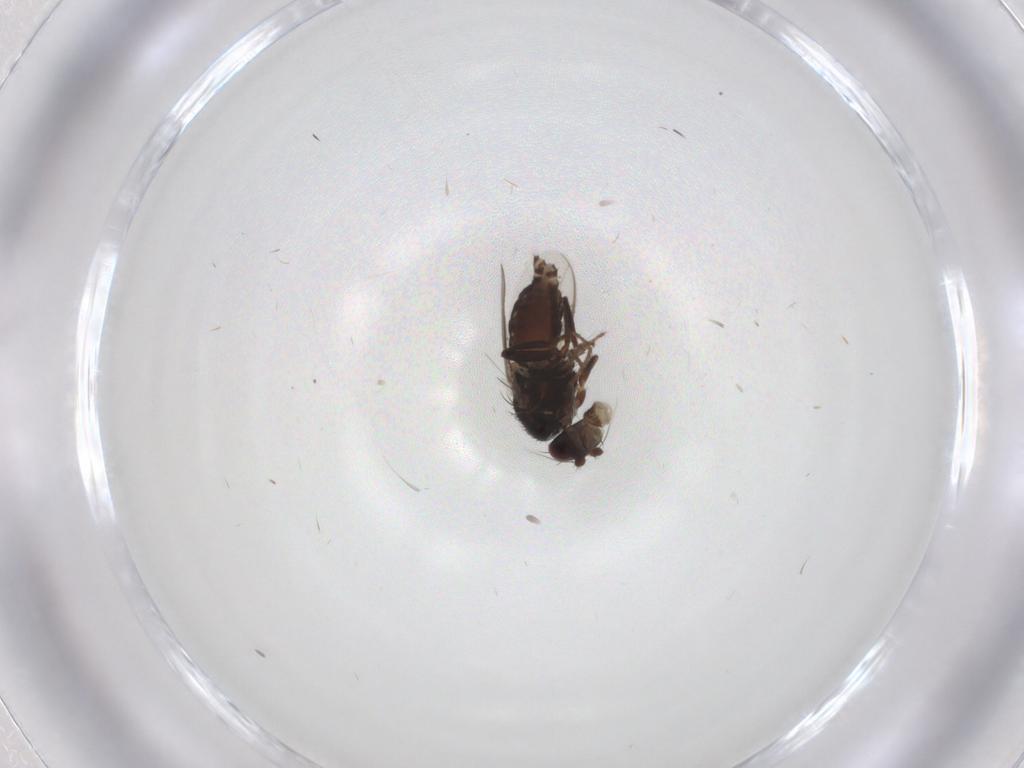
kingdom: Animalia
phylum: Arthropoda
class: Insecta
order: Diptera
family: Sphaeroceridae
